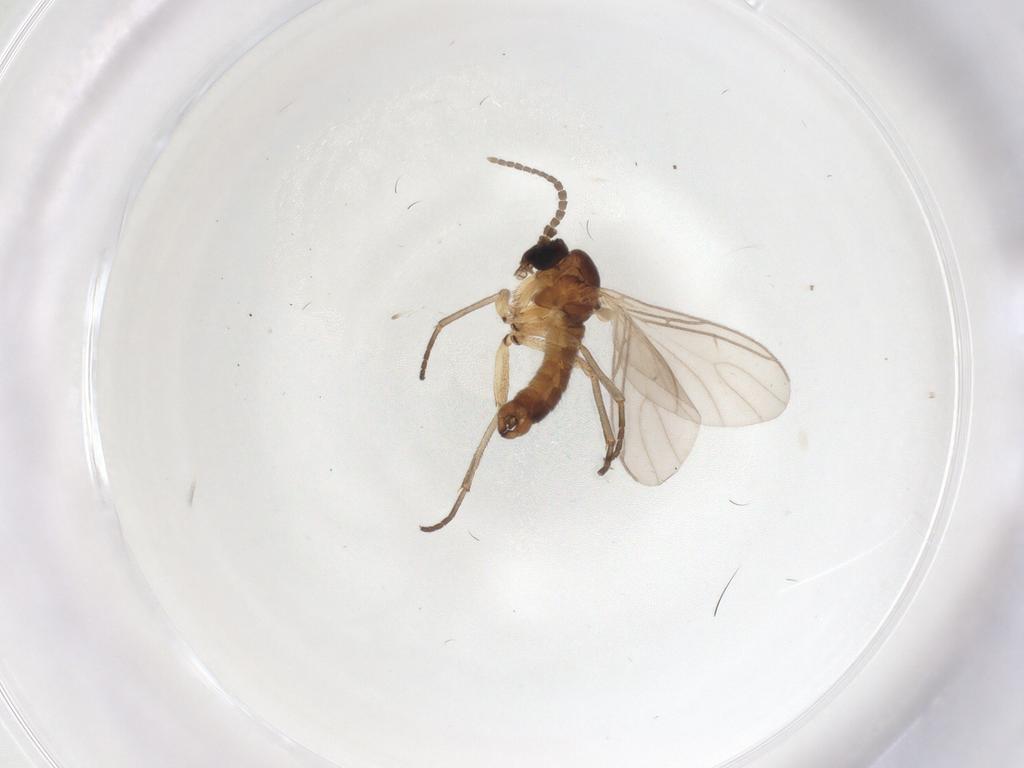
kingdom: Animalia
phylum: Arthropoda
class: Insecta
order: Diptera
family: Sciaridae
